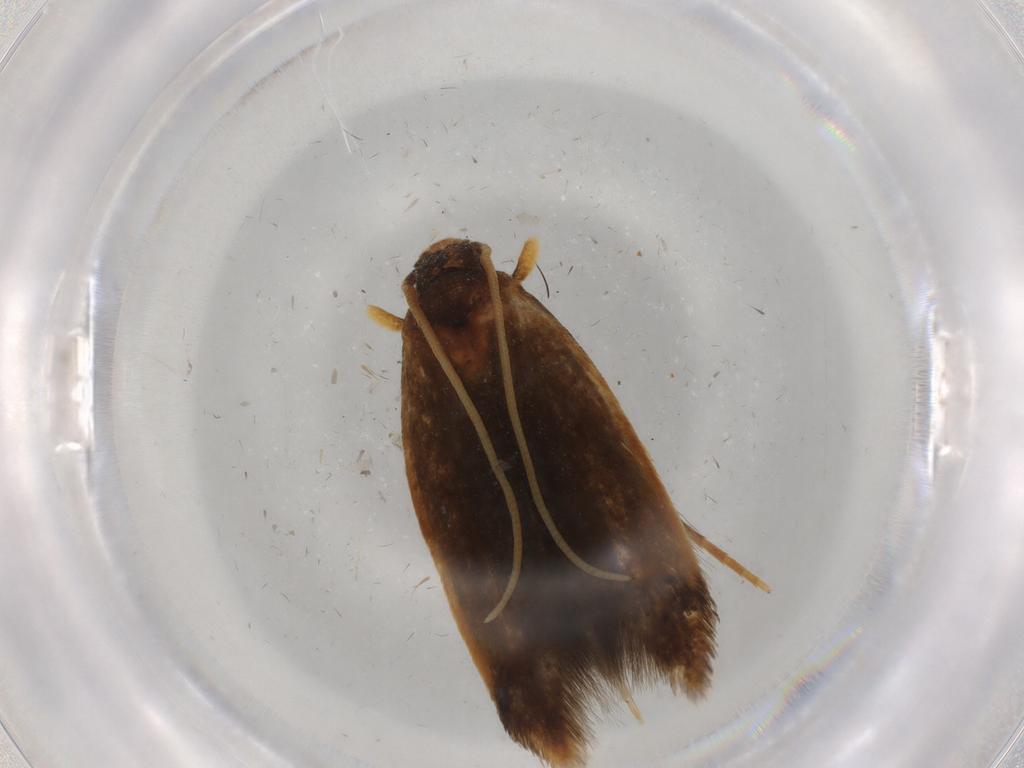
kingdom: Animalia
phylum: Arthropoda
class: Insecta
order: Lepidoptera
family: Tineidae
